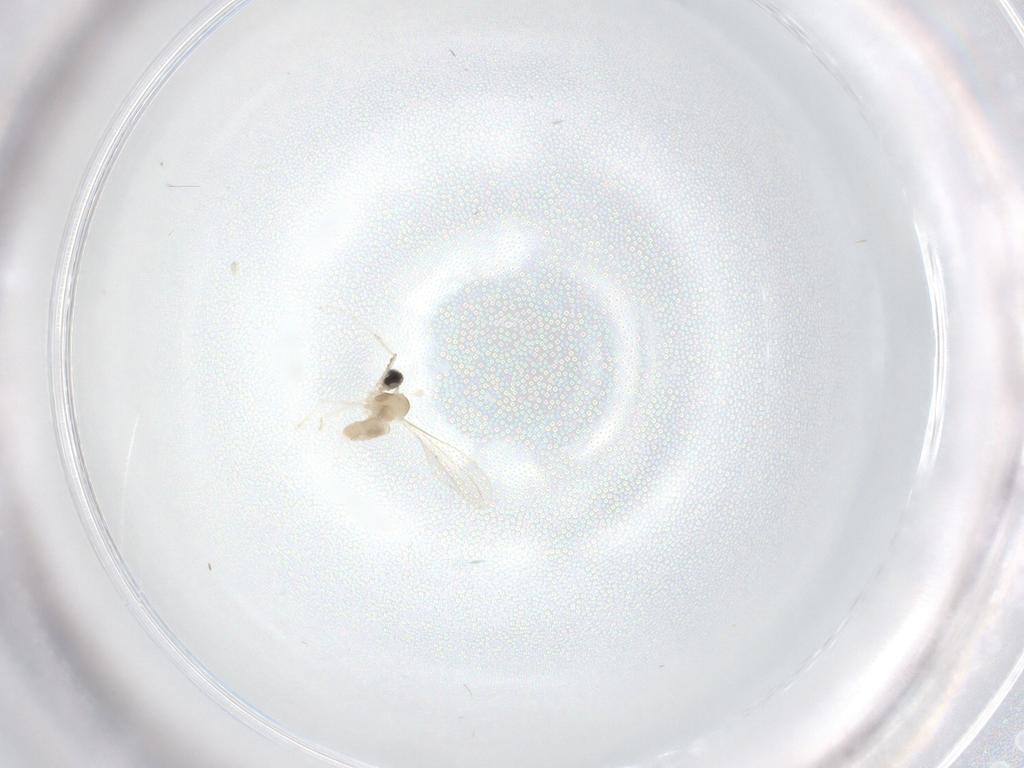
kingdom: Animalia
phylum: Arthropoda
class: Insecta
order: Diptera
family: Cecidomyiidae
